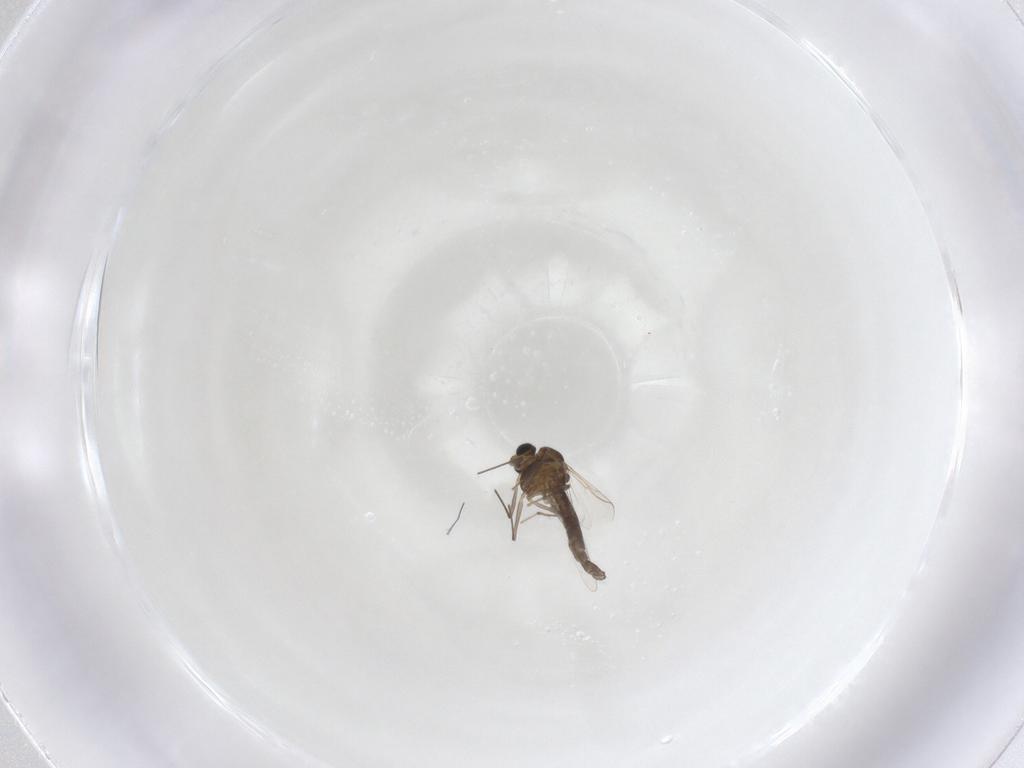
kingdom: Animalia
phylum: Arthropoda
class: Insecta
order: Diptera
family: Chironomidae
